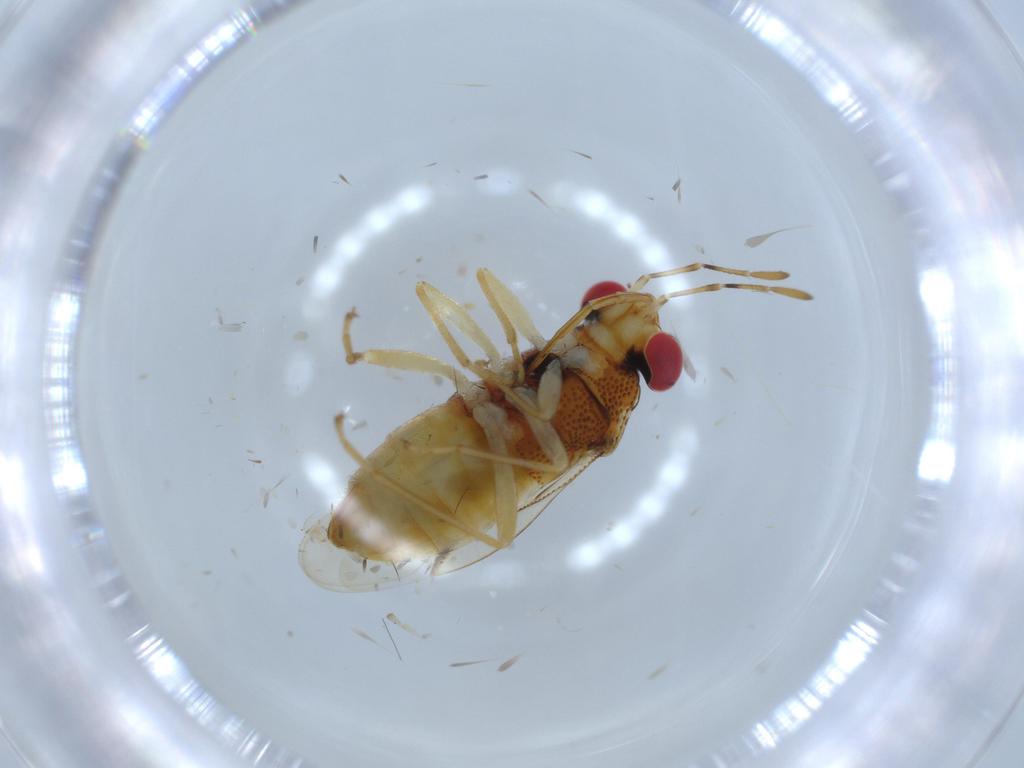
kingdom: Animalia
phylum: Arthropoda
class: Insecta
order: Hemiptera
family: Geocoridae
